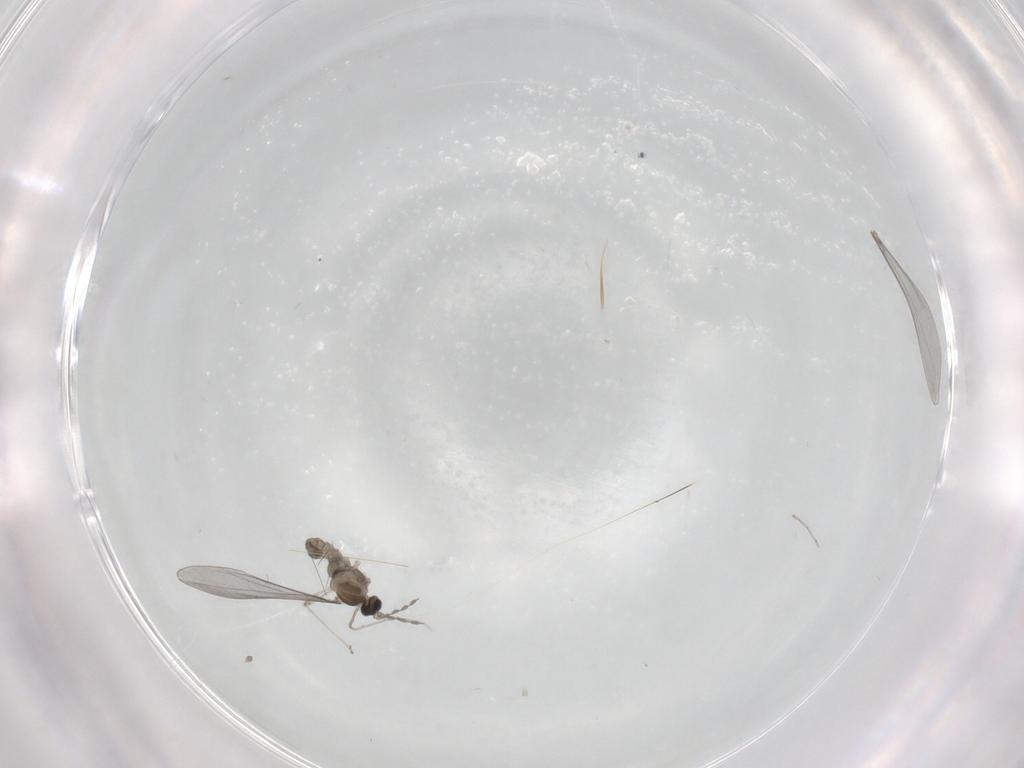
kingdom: Animalia
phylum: Arthropoda
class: Insecta
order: Diptera
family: Cecidomyiidae
